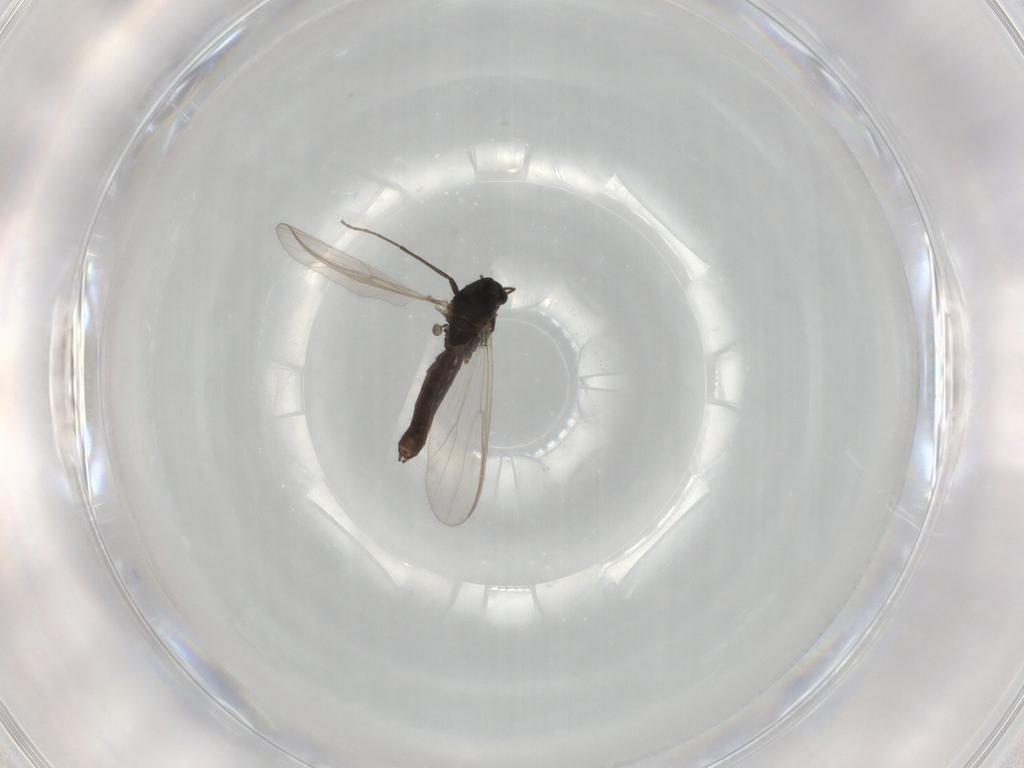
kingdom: Animalia
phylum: Arthropoda
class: Insecta
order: Diptera
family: Chironomidae
